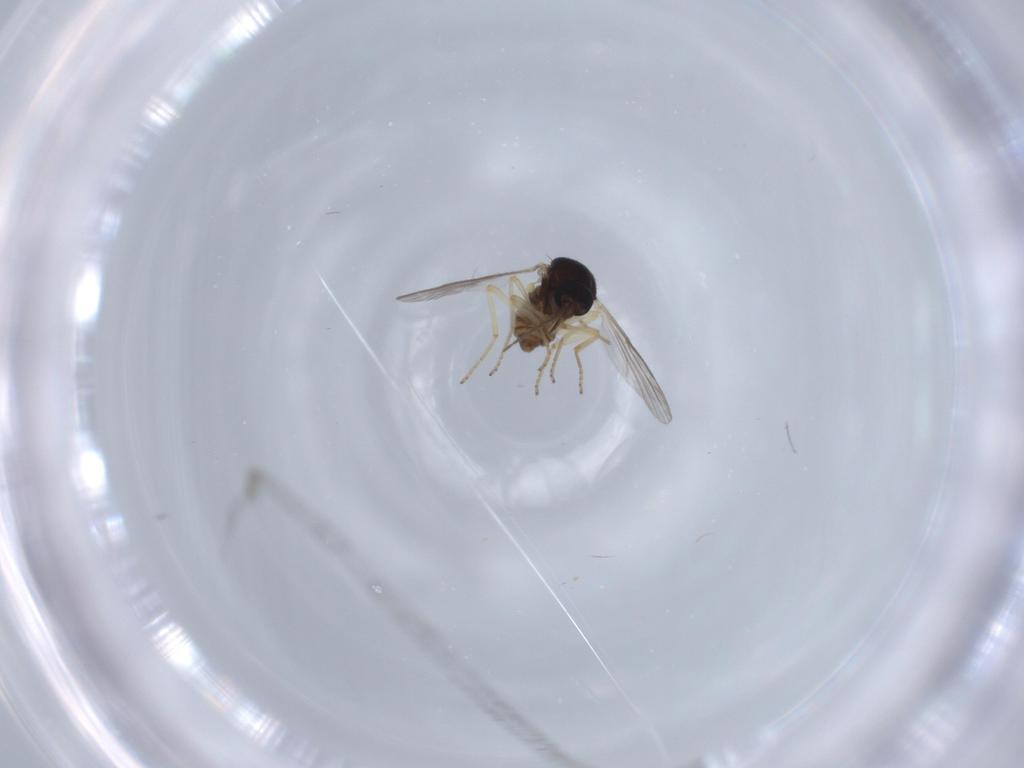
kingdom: Animalia
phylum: Arthropoda
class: Insecta
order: Diptera
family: Ceratopogonidae
